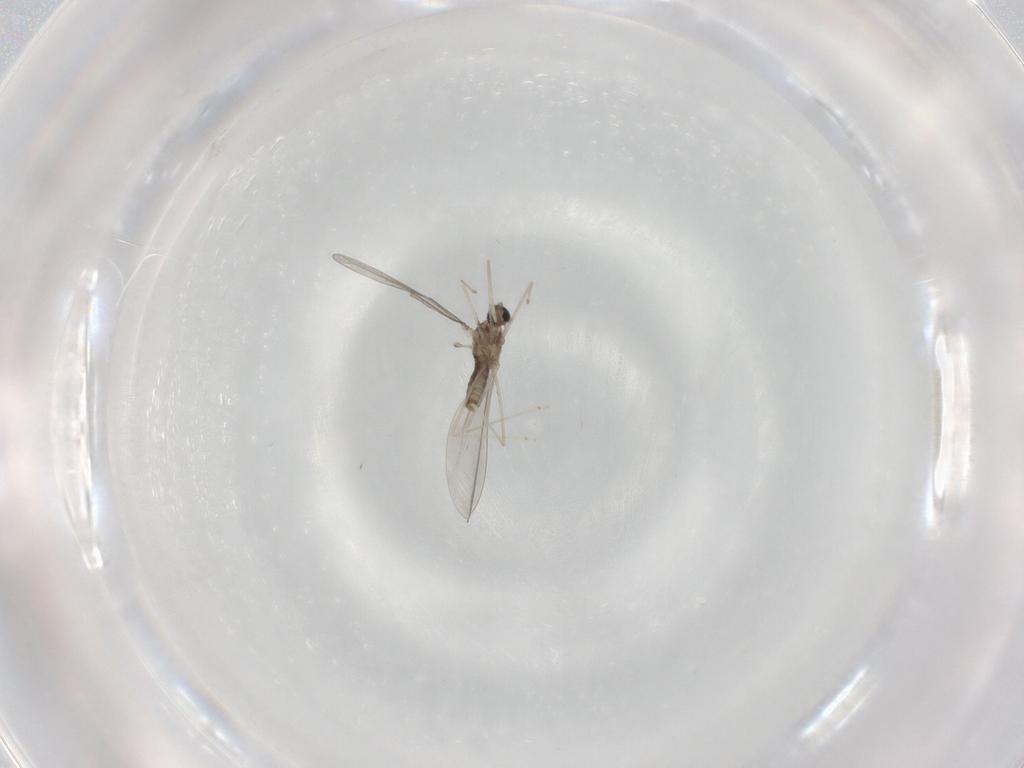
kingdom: Animalia
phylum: Arthropoda
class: Insecta
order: Diptera
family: Cecidomyiidae
